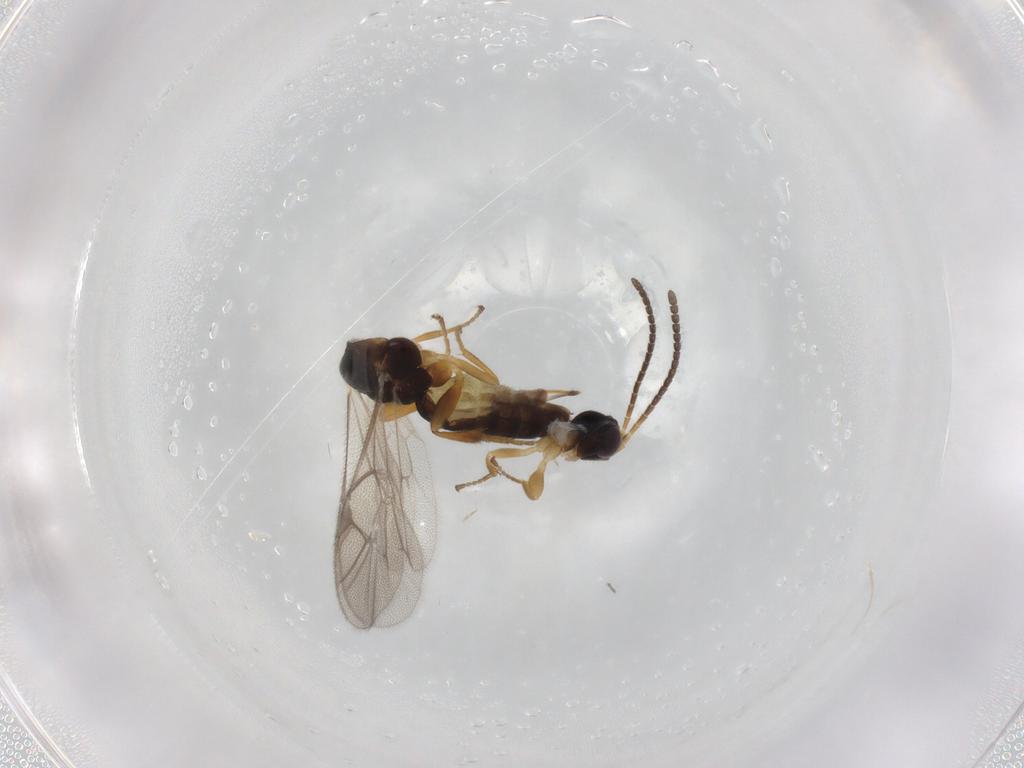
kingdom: Animalia
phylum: Arthropoda
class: Insecta
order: Hymenoptera
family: Ichneumonidae
